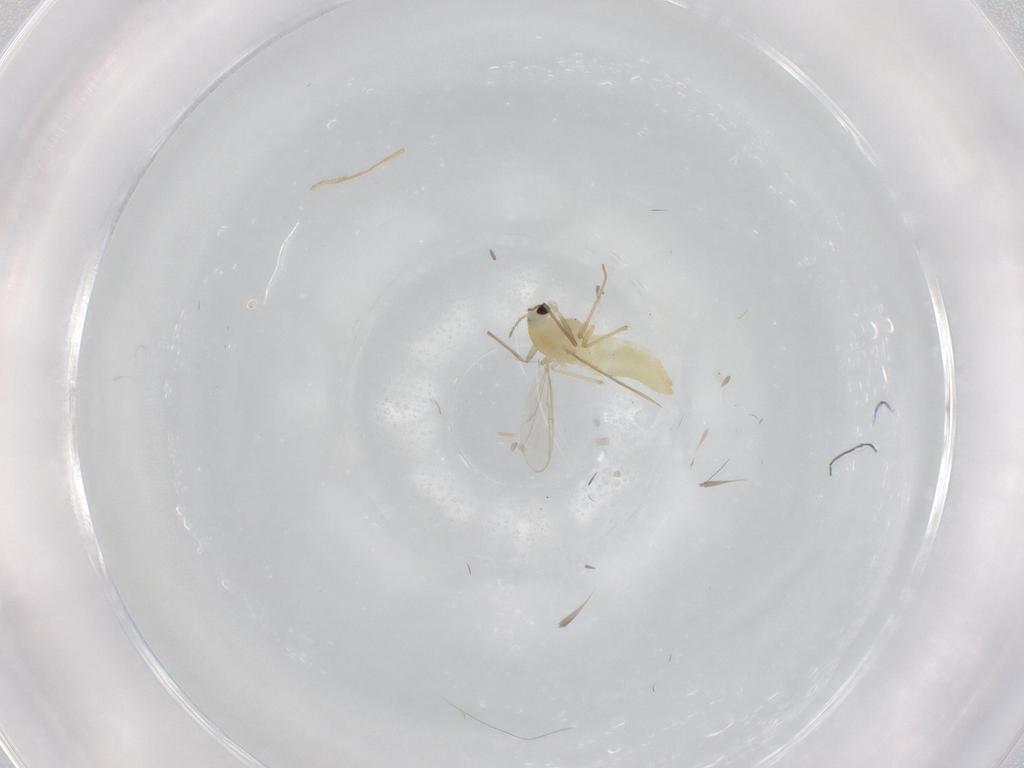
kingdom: Animalia
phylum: Arthropoda
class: Insecta
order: Diptera
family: Chironomidae
